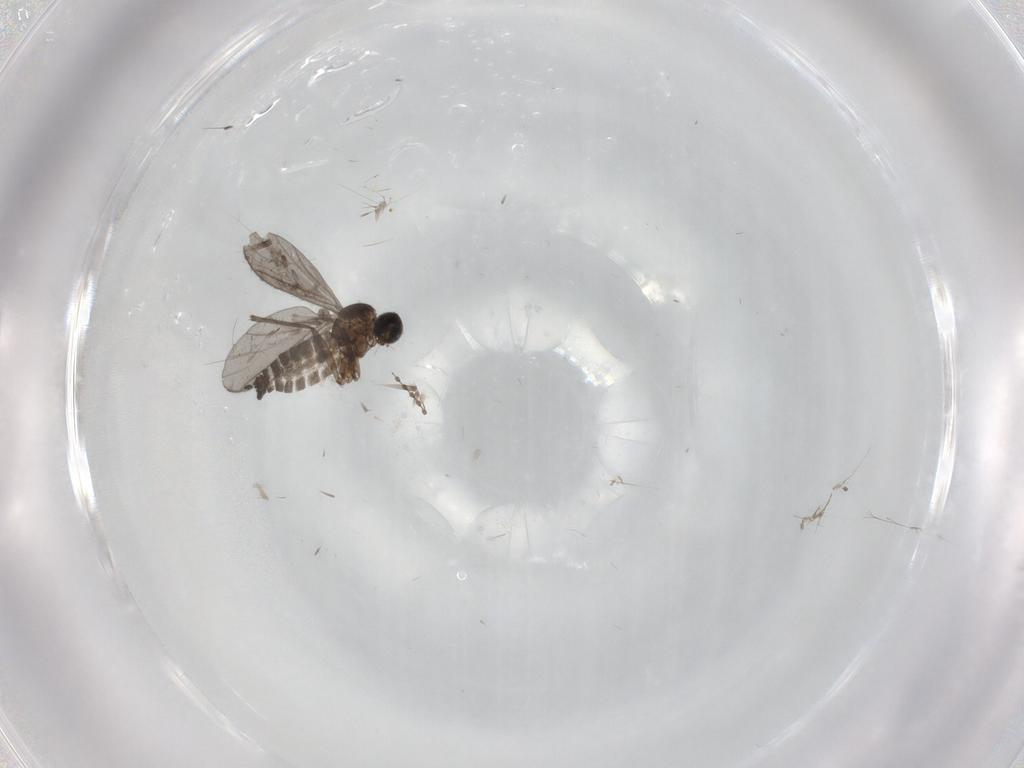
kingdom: Animalia
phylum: Arthropoda
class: Insecta
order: Diptera
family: Sciaridae
